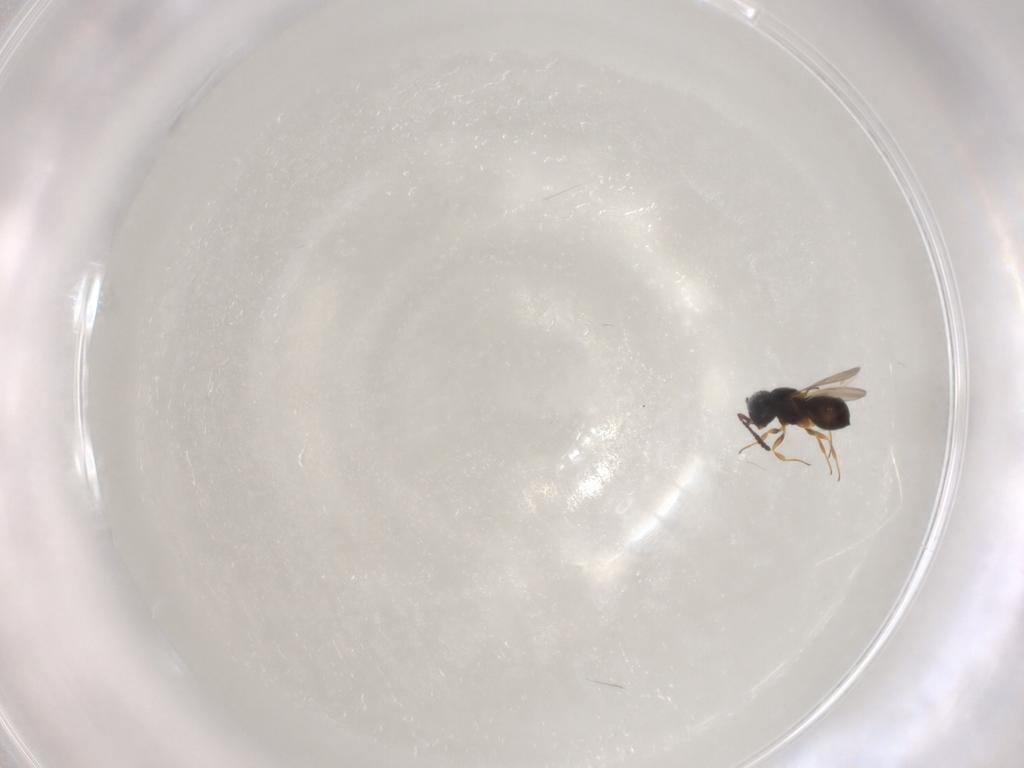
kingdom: Animalia
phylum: Arthropoda
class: Insecta
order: Hymenoptera
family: Scelionidae
